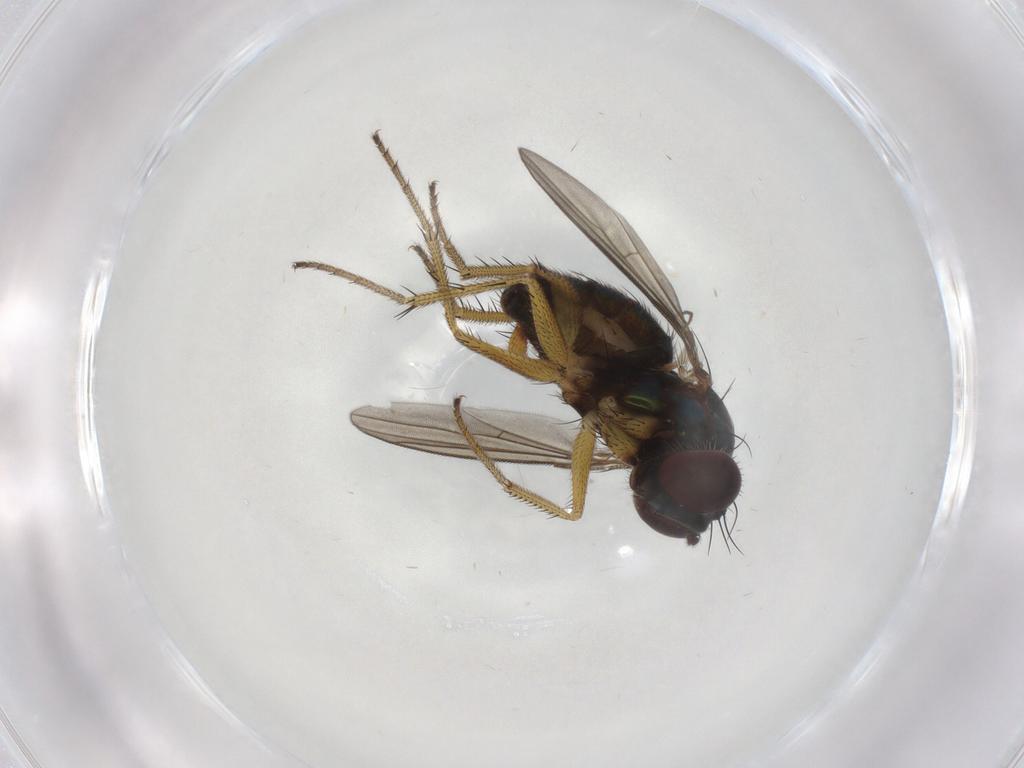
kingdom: Animalia
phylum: Arthropoda
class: Insecta
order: Diptera
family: Dolichopodidae
